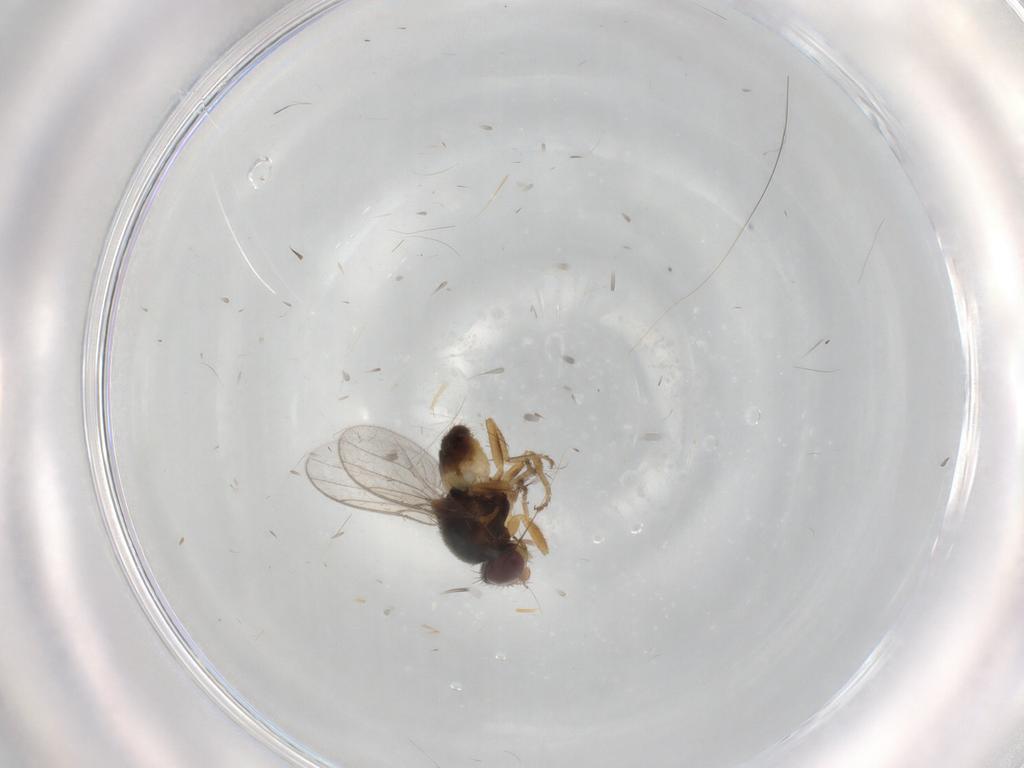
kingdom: Animalia
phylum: Arthropoda
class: Insecta
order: Diptera
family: Chloropidae
